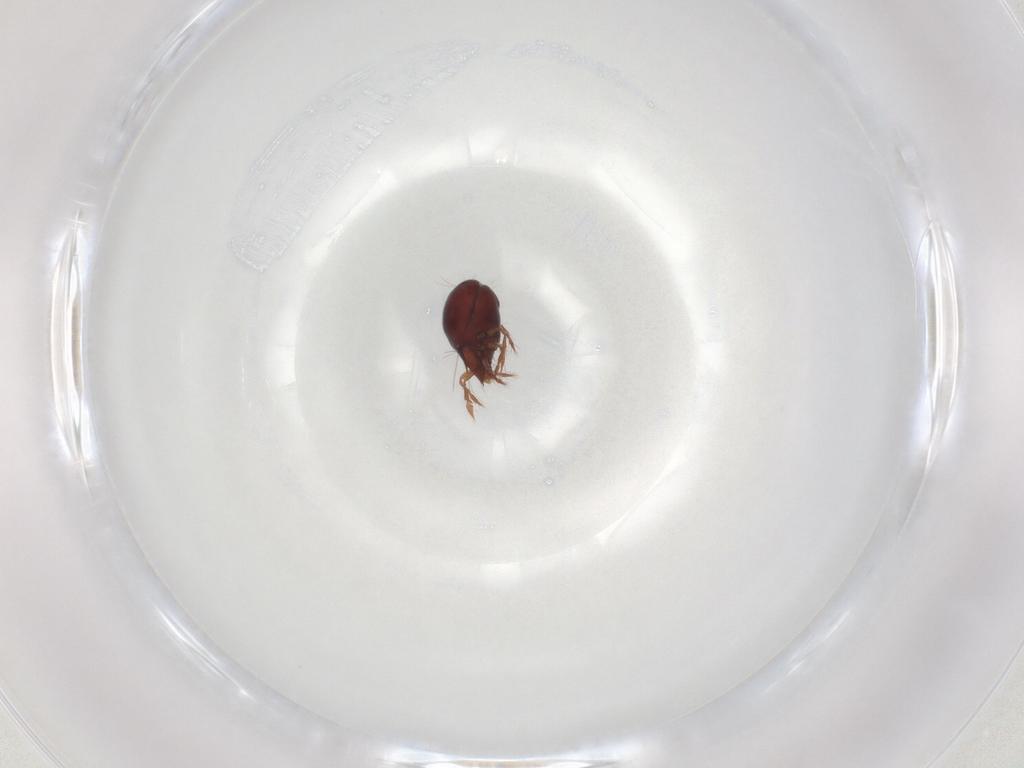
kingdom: Animalia
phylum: Arthropoda
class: Arachnida
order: Sarcoptiformes
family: Ceratoppiidae
